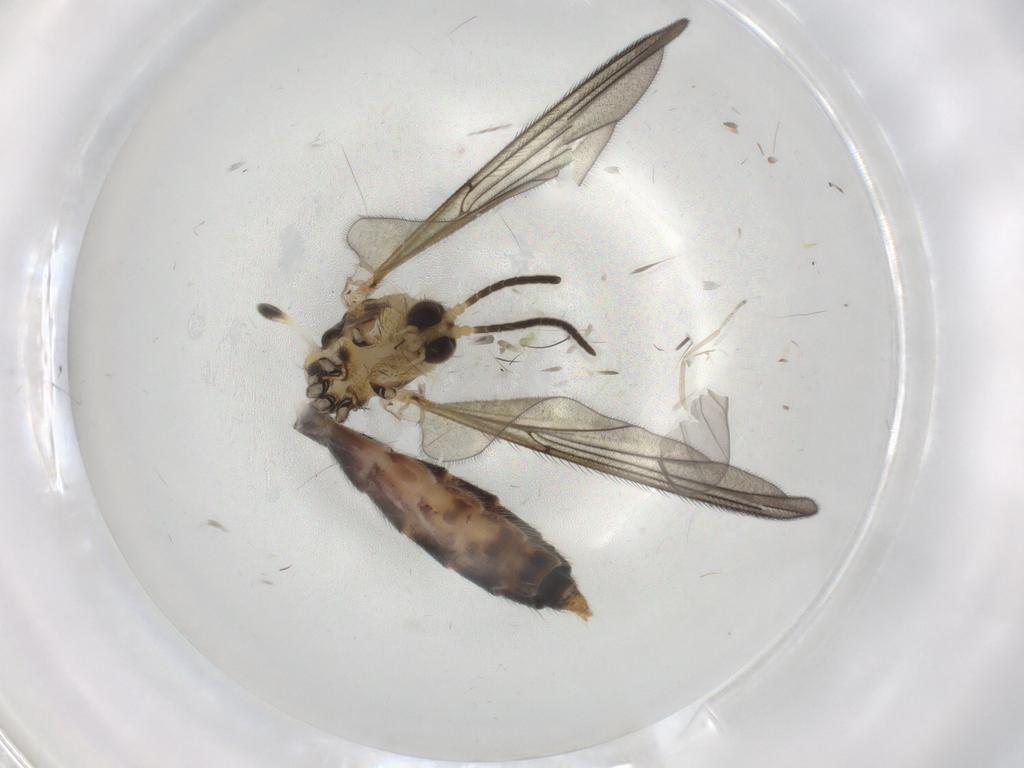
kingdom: Animalia
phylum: Arthropoda
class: Insecta
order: Diptera
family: Chironomidae
